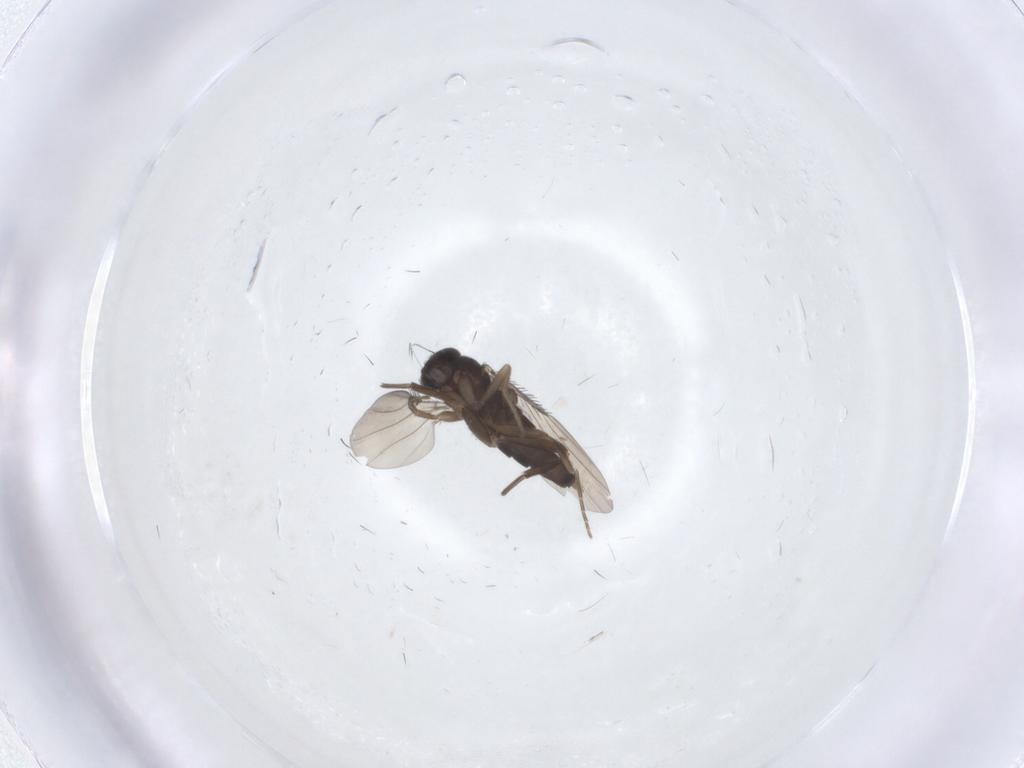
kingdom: Animalia
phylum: Arthropoda
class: Insecta
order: Diptera
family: Phoridae
